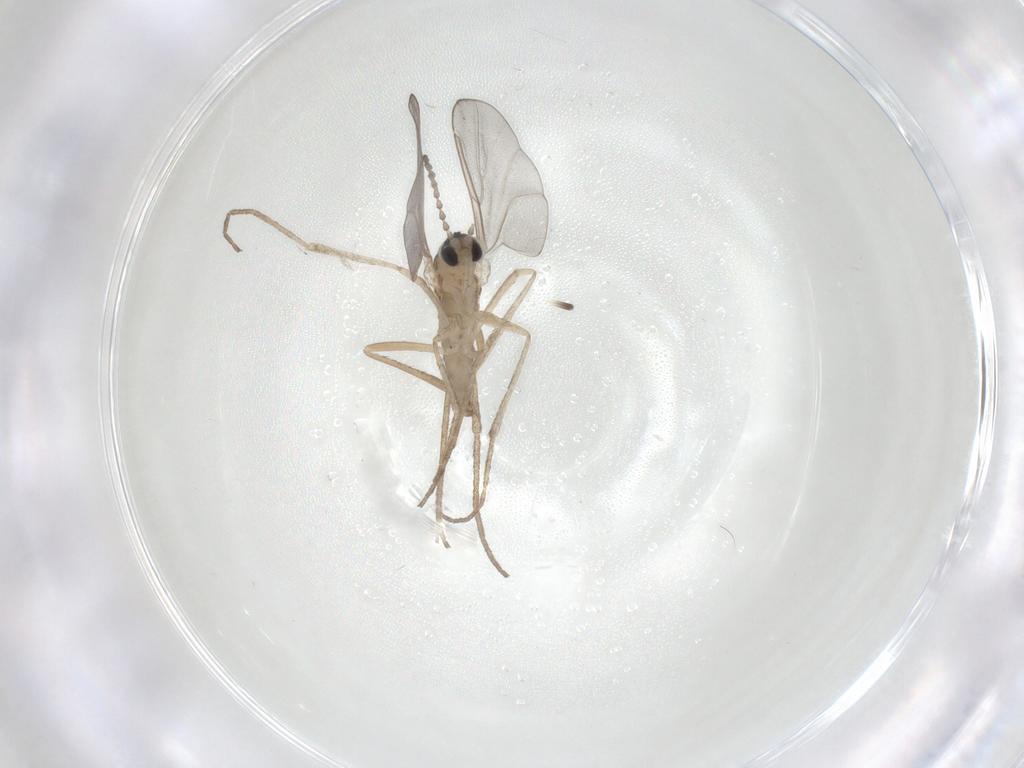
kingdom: Animalia
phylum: Arthropoda
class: Insecta
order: Diptera
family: Cecidomyiidae
